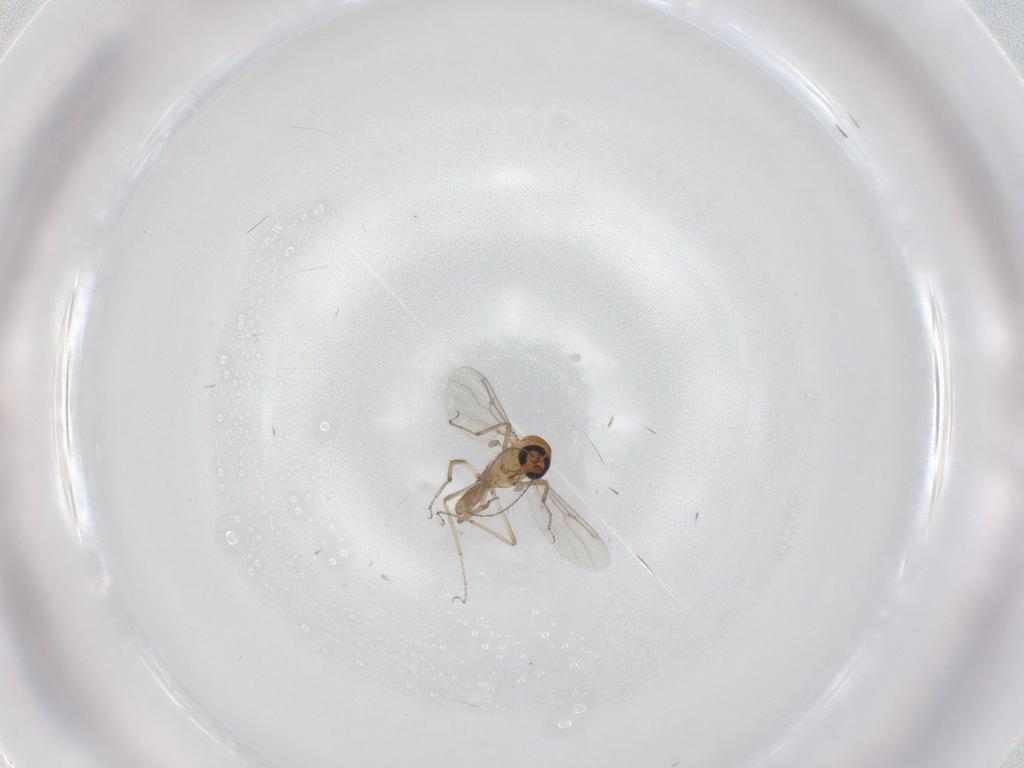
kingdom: Animalia
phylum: Arthropoda
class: Insecta
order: Diptera
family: Ceratopogonidae
